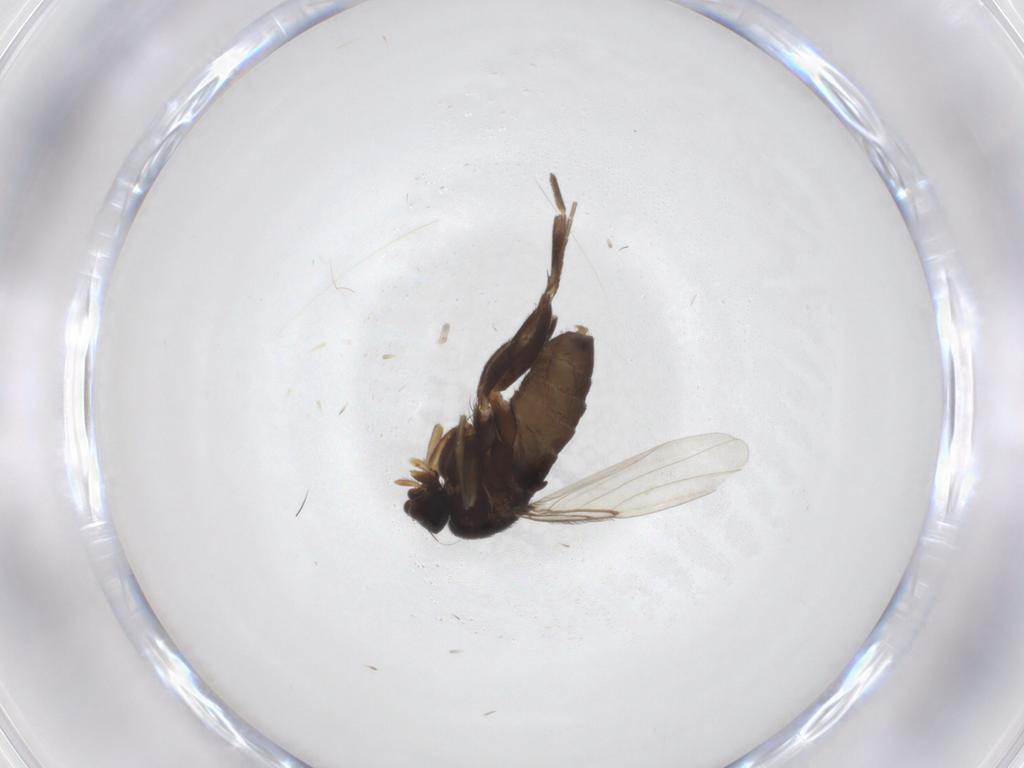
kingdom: Animalia
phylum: Arthropoda
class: Insecta
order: Diptera
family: Phoridae
